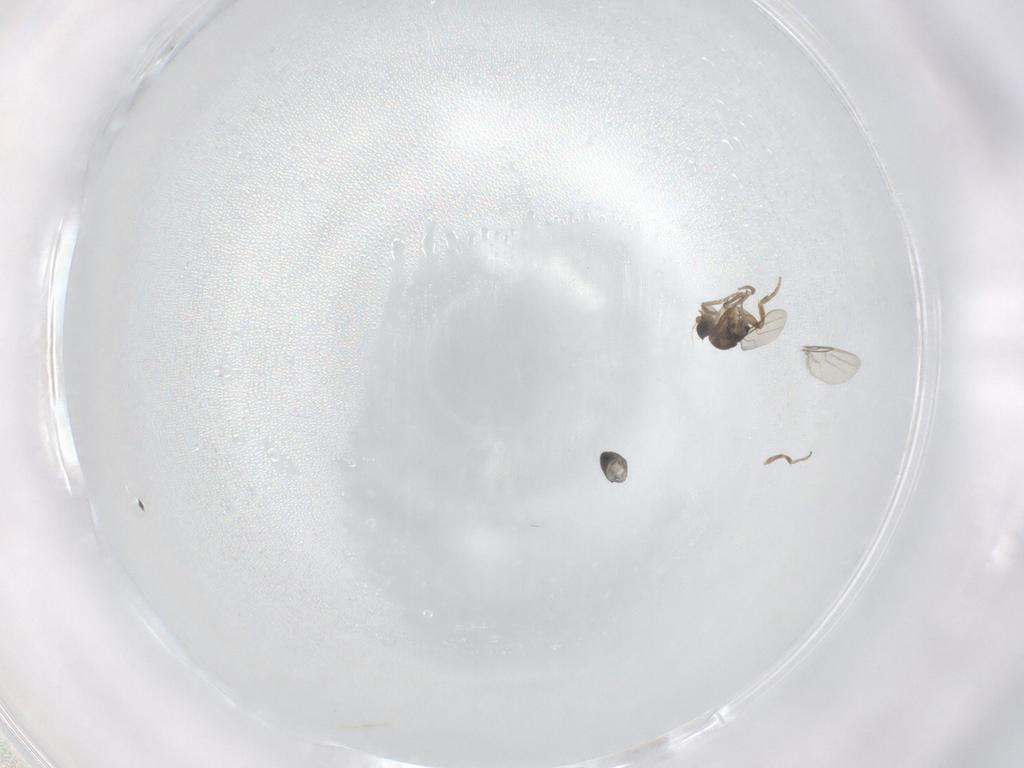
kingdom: Animalia
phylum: Arthropoda
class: Insecta
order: Diptera
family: Phoridae
